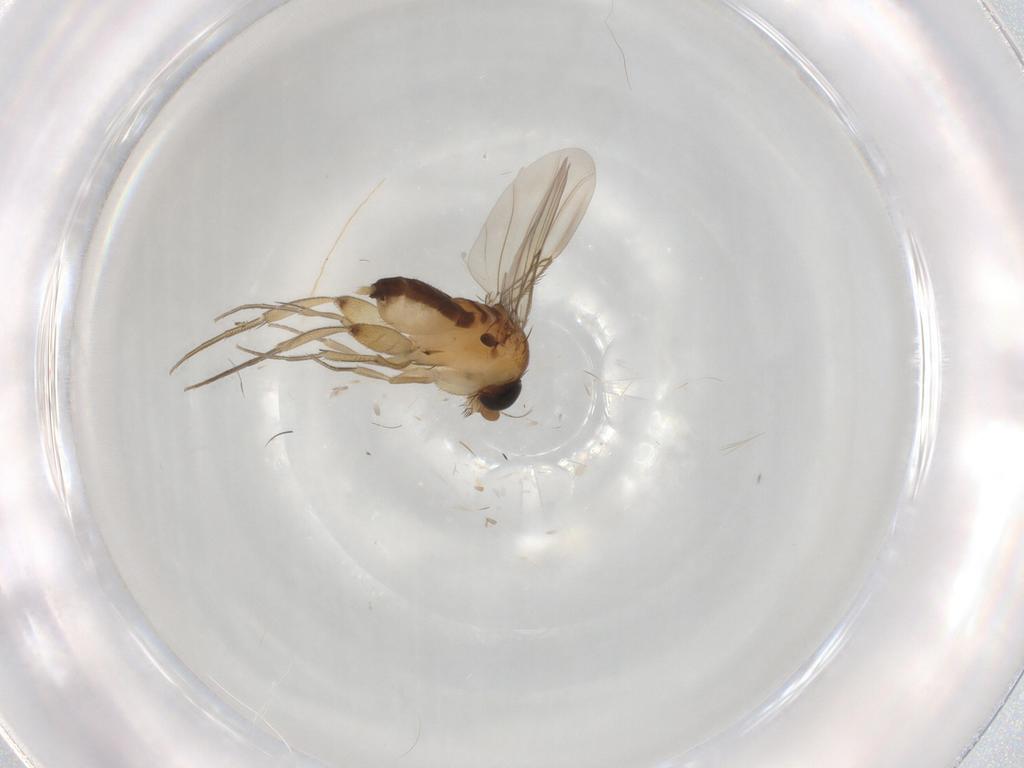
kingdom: Animalia
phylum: Arthropoda
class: Insecta
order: Diptera
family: Phoridae
